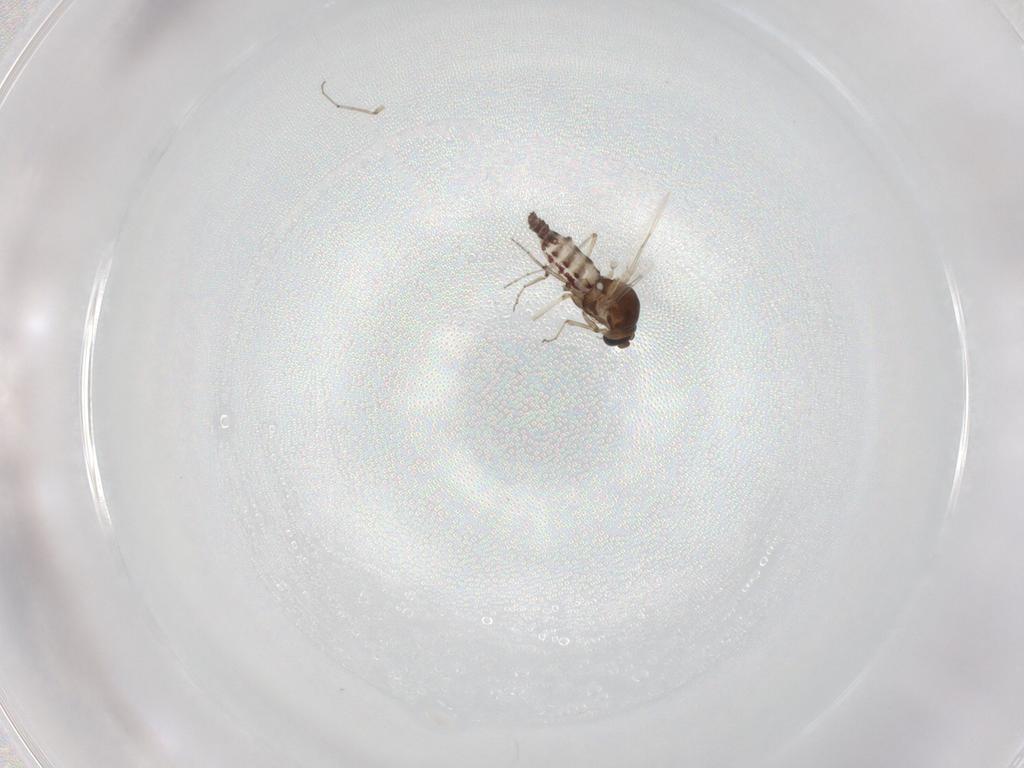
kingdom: Animalia
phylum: Arthropoda
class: Insecta
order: Diptera
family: Ceratopogonidae
